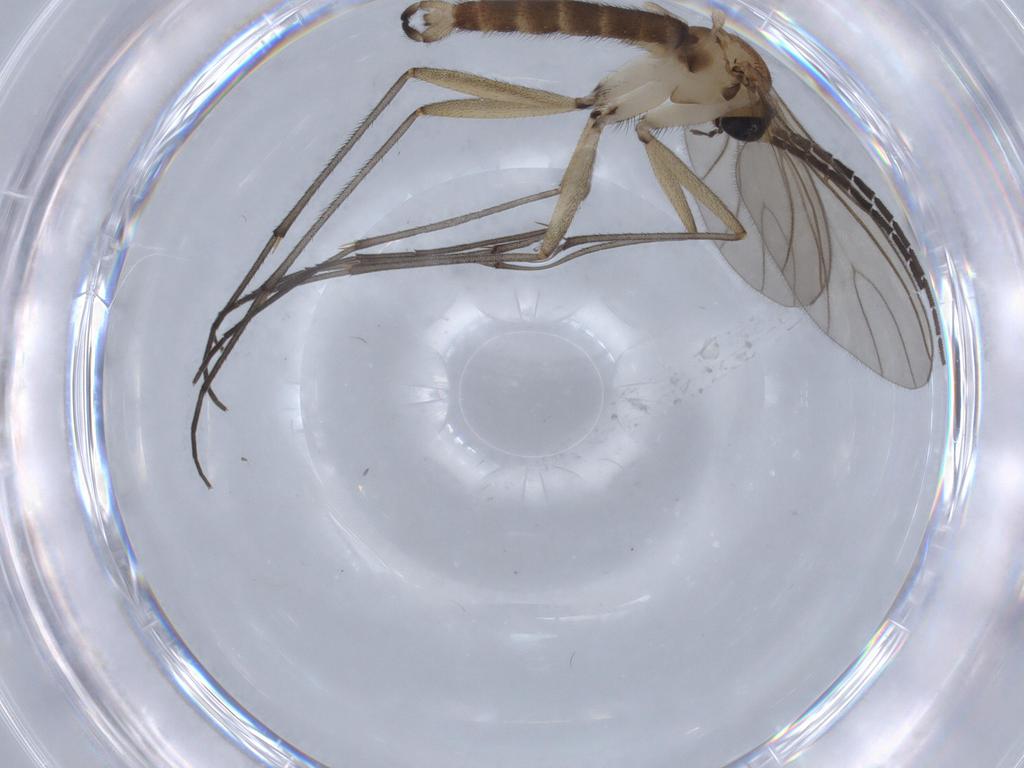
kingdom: Animalia
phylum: Arthropoda
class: Insecta
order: Diptera
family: Sciaridae
